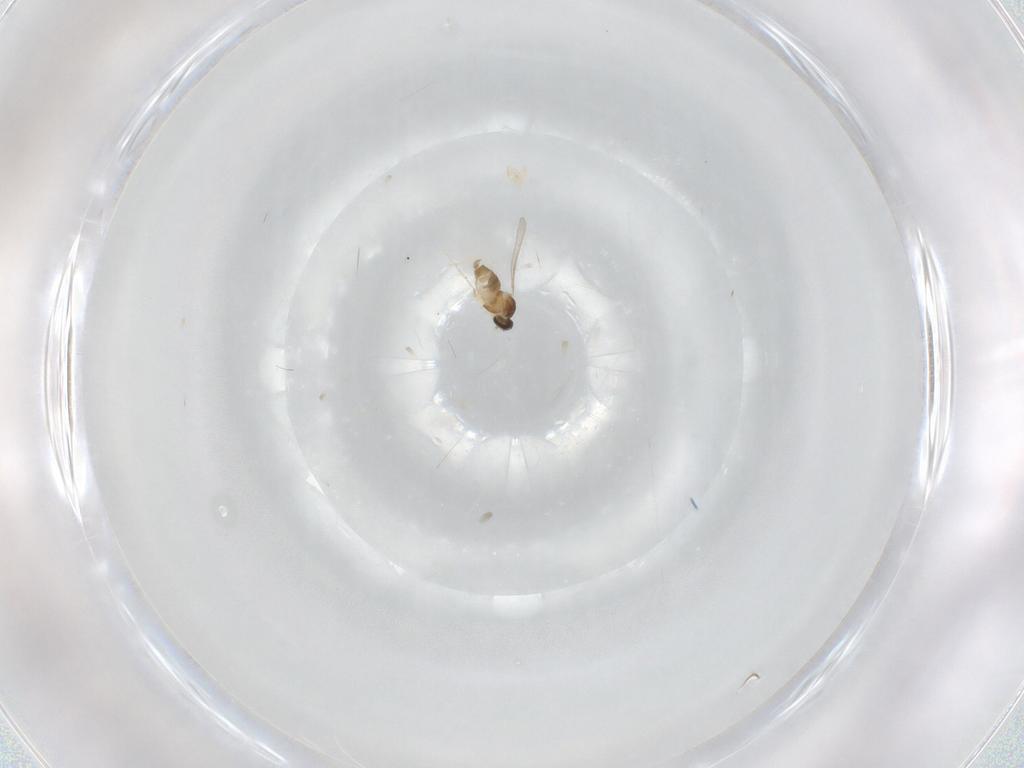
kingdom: Animalia
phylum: Arthropoda
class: Insecta
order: Diptera
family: Cecidomyiidae
